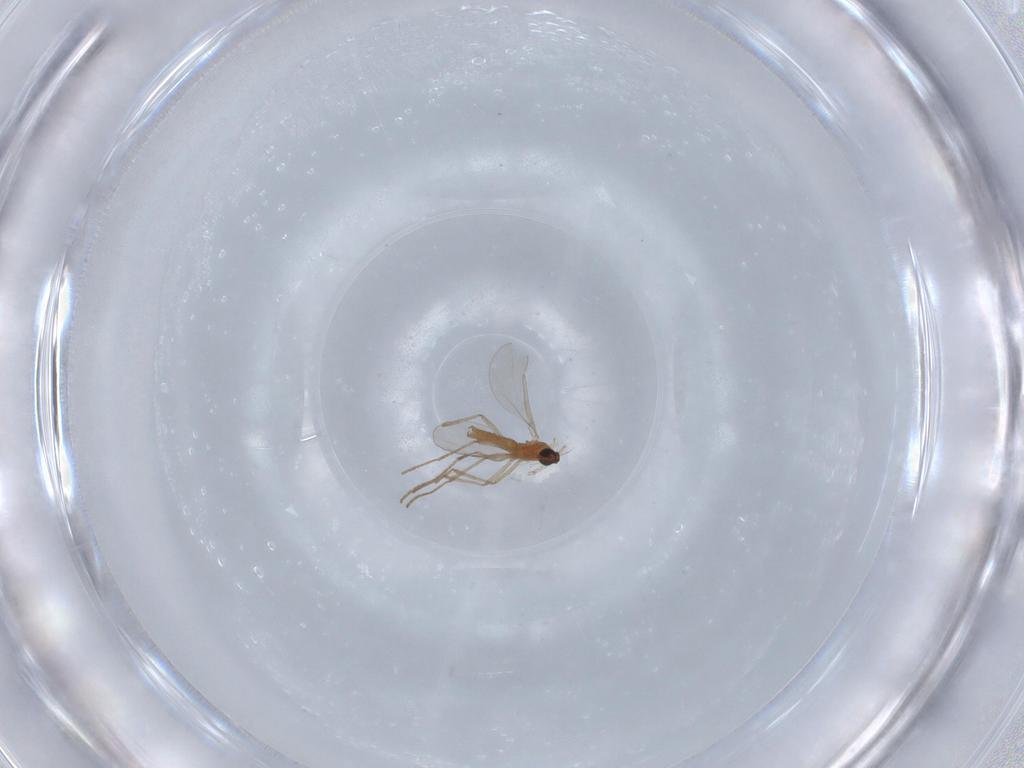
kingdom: Animalia
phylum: Arthropoda
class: Insecta
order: Diptera
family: Cecidomyiidae
